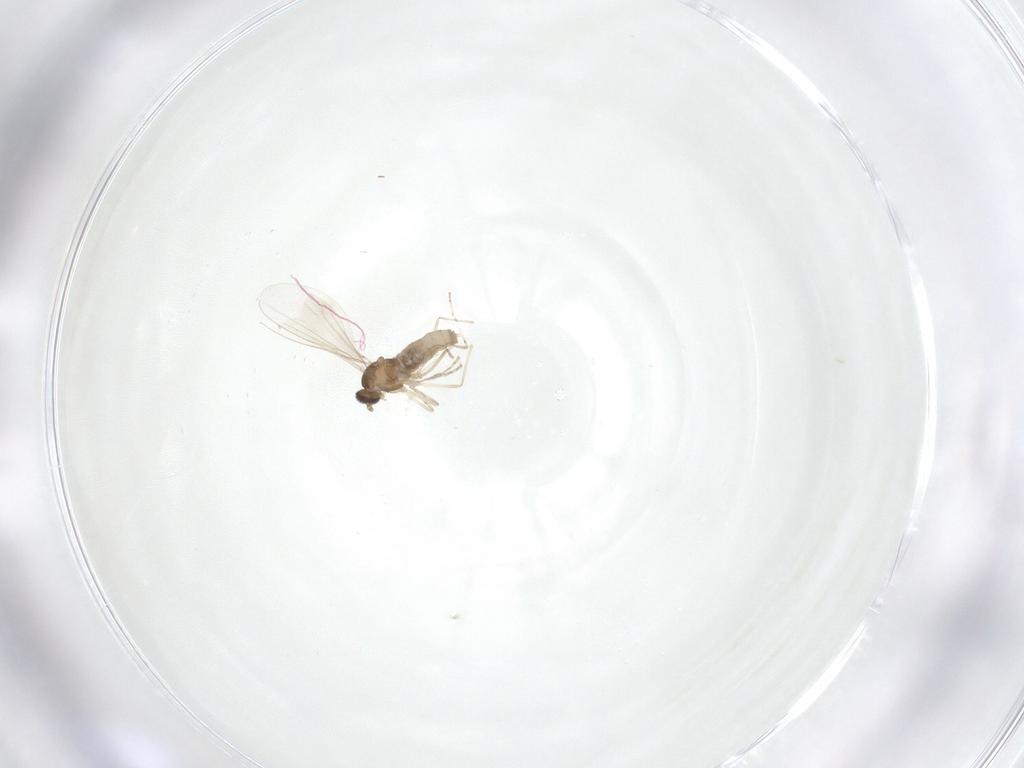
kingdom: Animalia
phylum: Arthropoda
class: Insecta
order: Diptera
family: Cecidomyiidae
